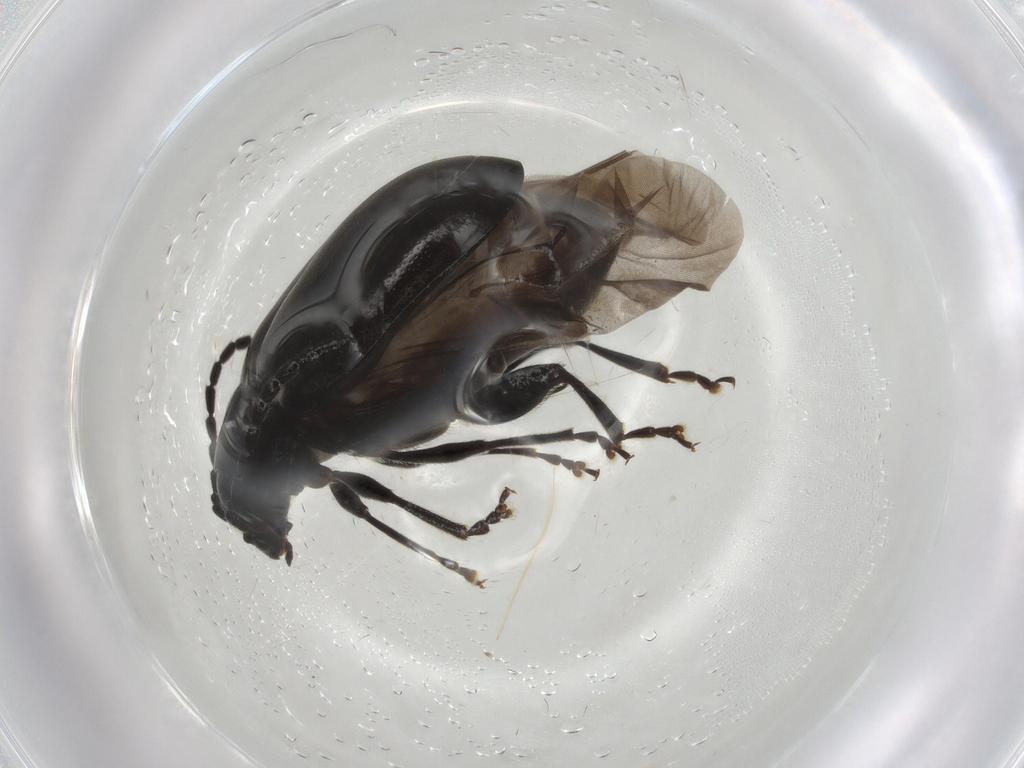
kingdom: Animalia
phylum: Arthropoda
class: Insecta
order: Coleoptera
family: Chrysomelidae
